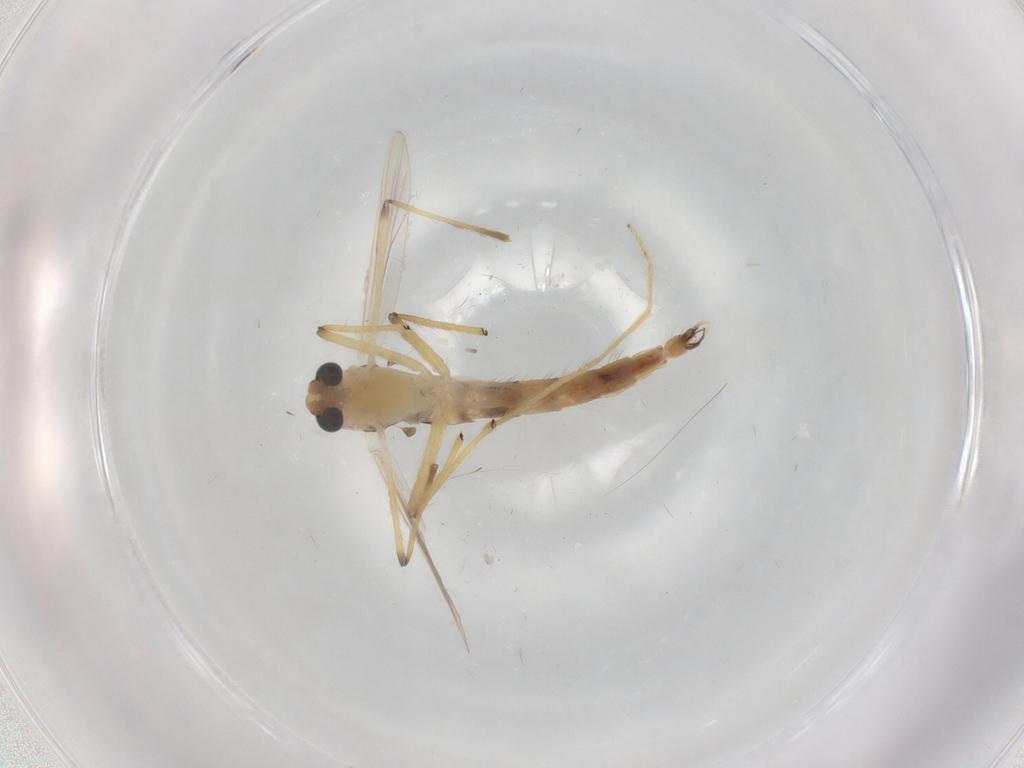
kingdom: Animalia
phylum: Arthropoda
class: Insecta
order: Diptera
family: Chironomidae
